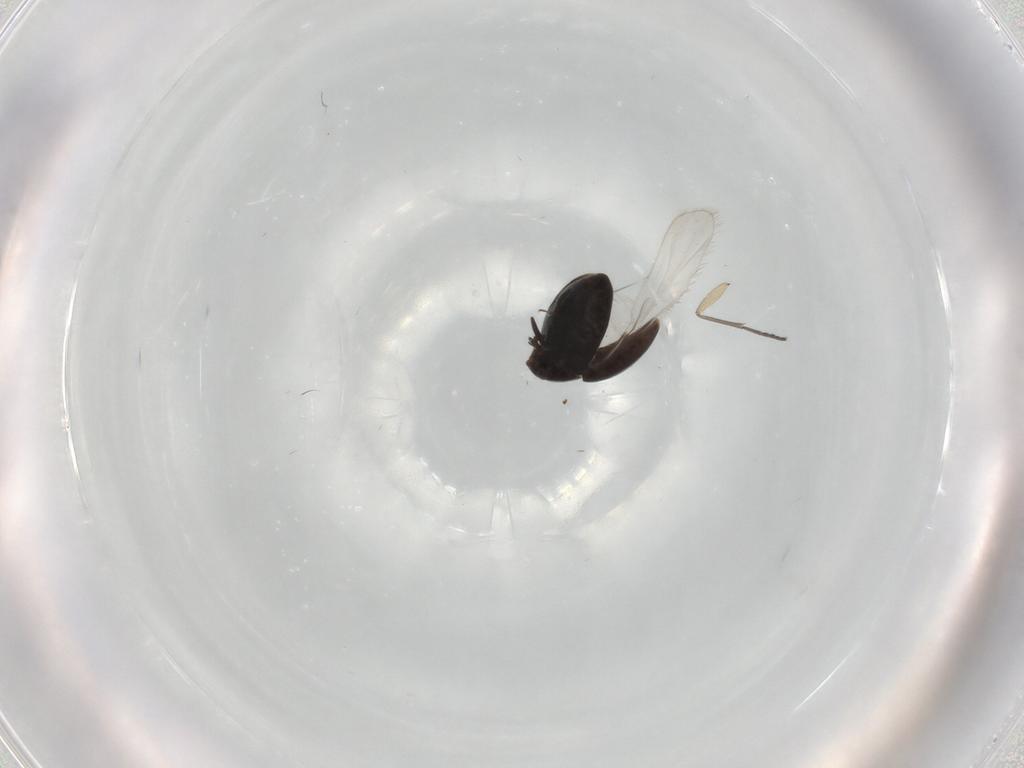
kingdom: Animalia
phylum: Arthropoda
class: Insecta
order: Coleoptera
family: Corylophidae
